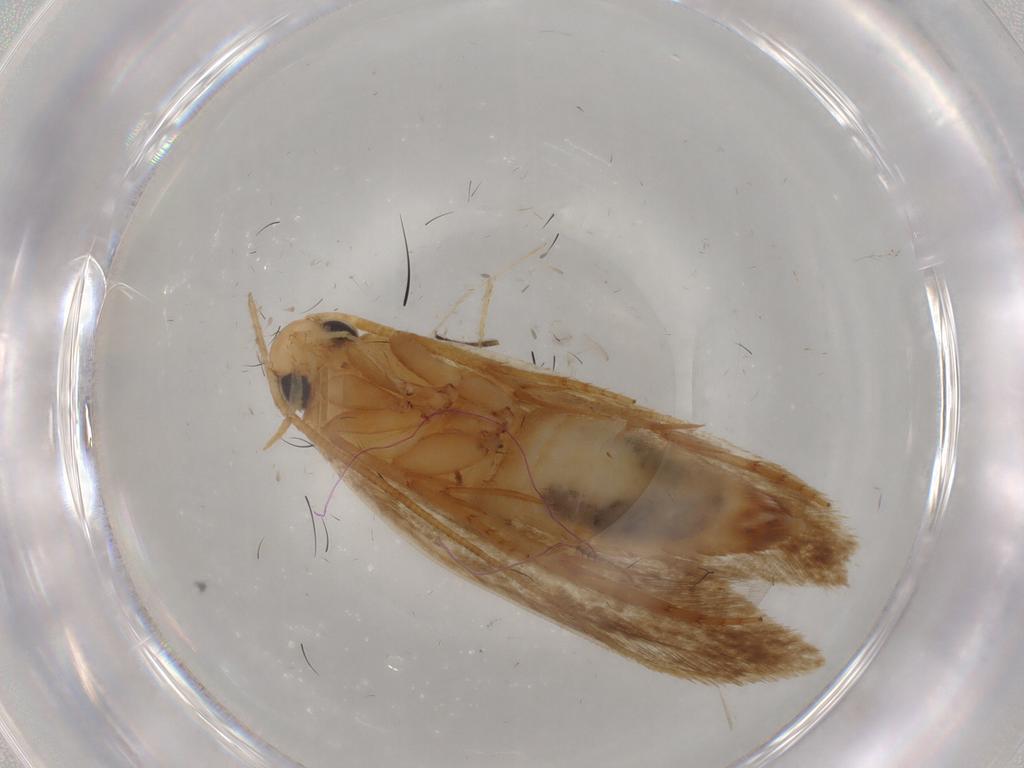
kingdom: Animalia
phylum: Arthropoda
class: Insecta
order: Lepidoptera
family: Tineidae
